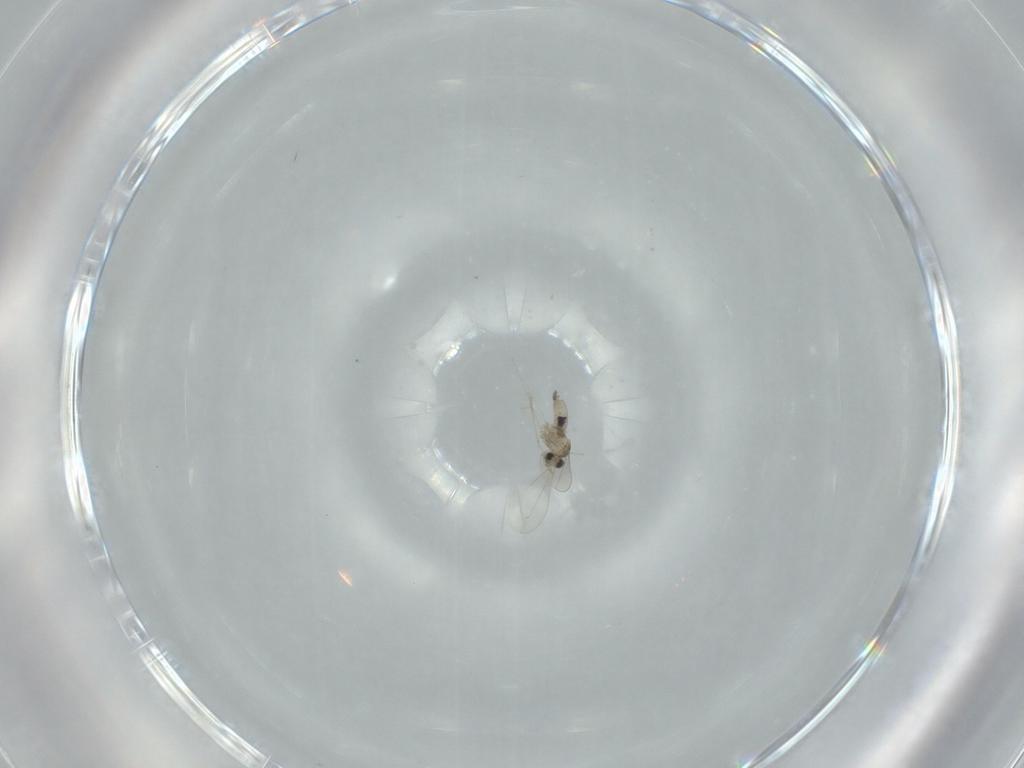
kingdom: Animalia
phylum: Arthropoda
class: Insecta
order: Diptera
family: Cecidomyiidae
